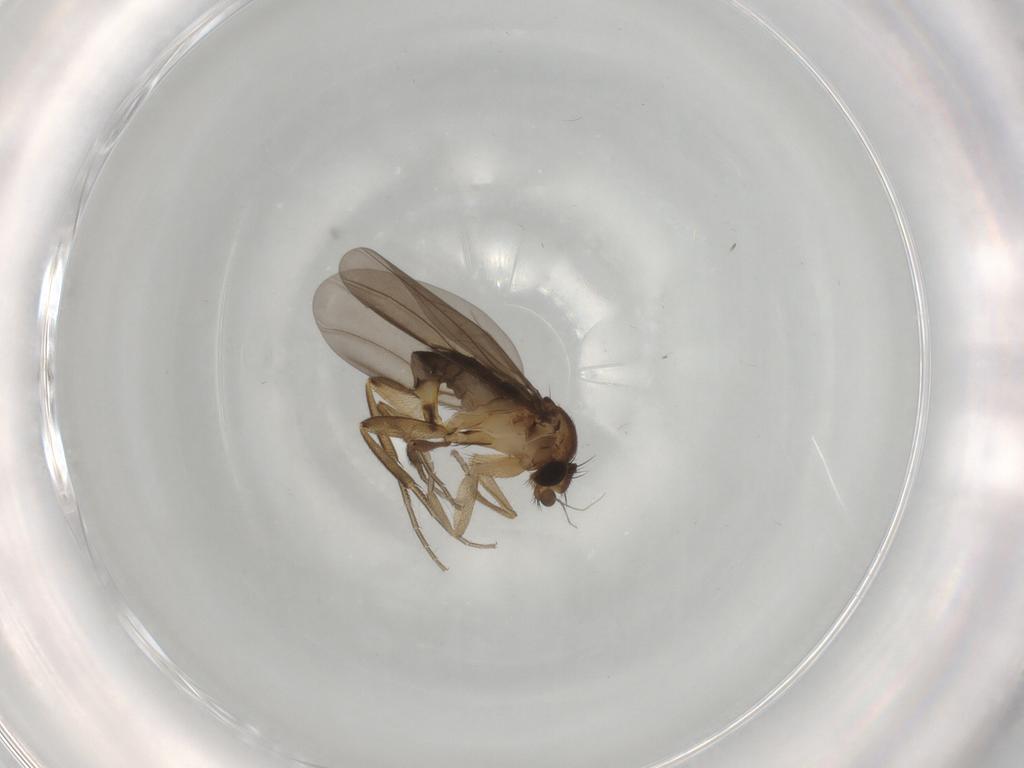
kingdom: Animalia
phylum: Arthropoda
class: Insecta
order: Diptera
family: Phoridae
